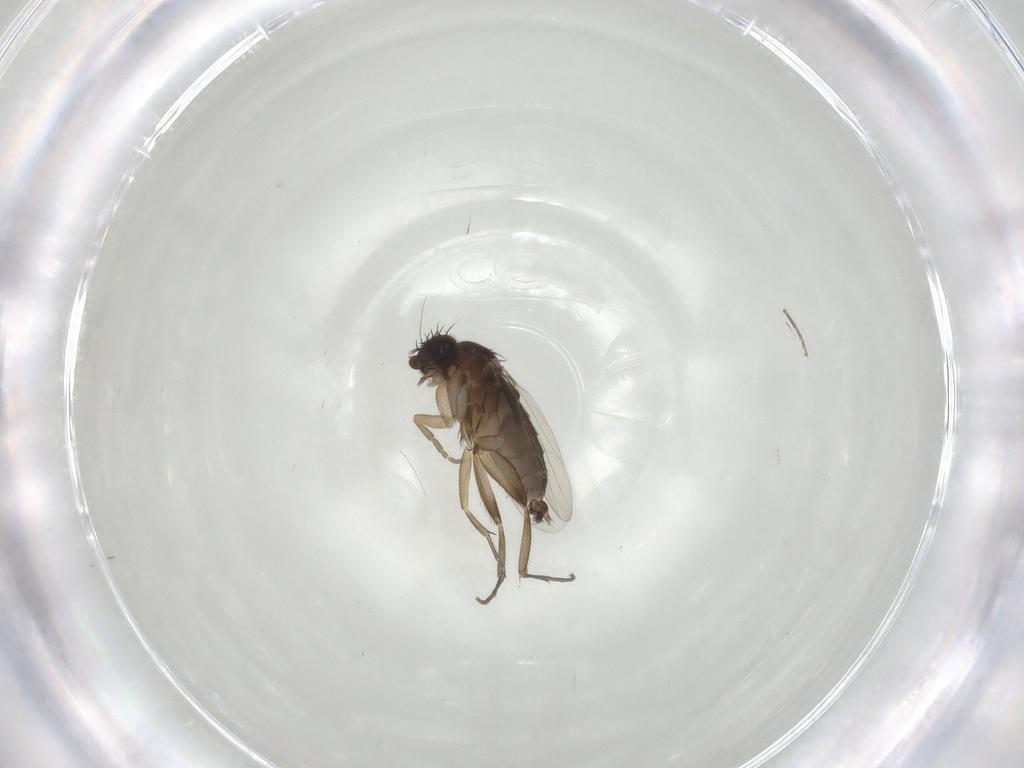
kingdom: Animalia
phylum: Arthropoda
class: Insecta
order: Diptera
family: Phoridae
